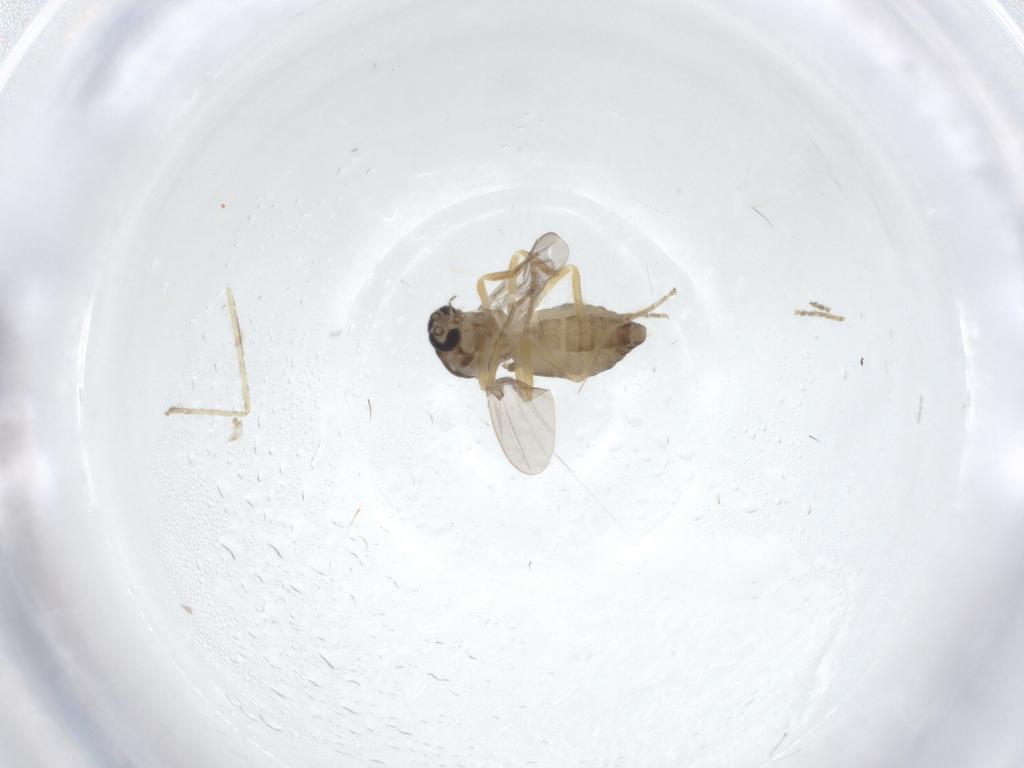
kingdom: Animalia
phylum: Arthropoda
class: Insecta
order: Diptera
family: Ceratopogonidae
